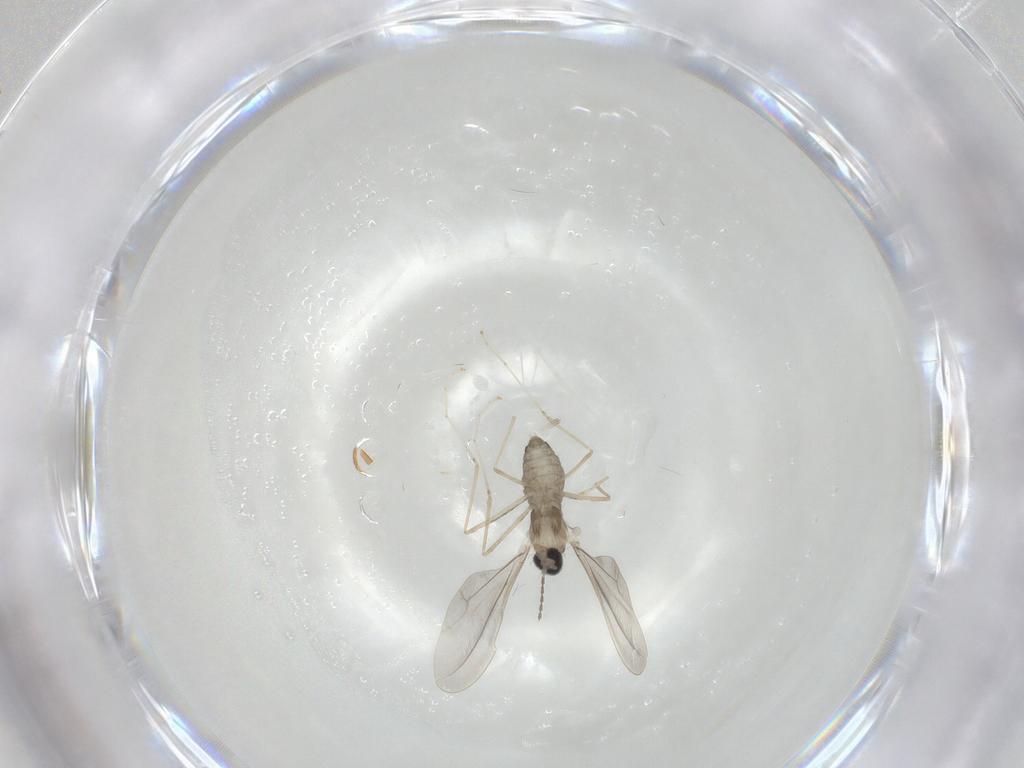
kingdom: Animalia
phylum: Arthropoda
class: Insecta
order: Diptera
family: Cecidomyiidae
